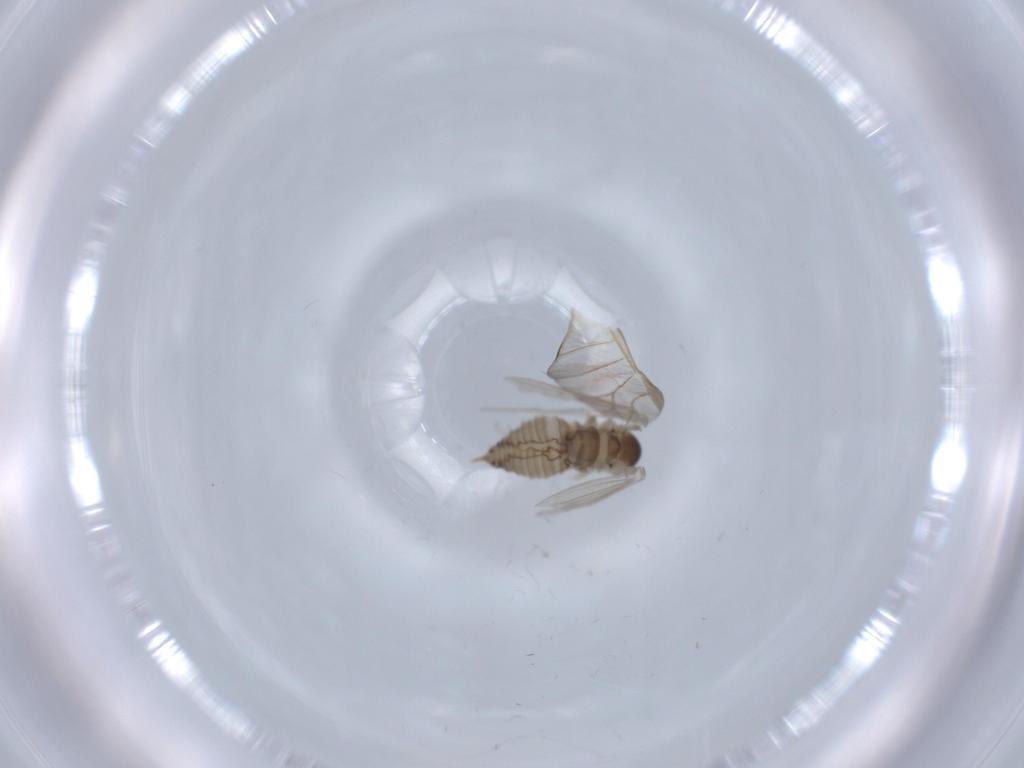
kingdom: Animalia
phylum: Arthropoda
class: Insecta
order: Diptera
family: Psychodidae
